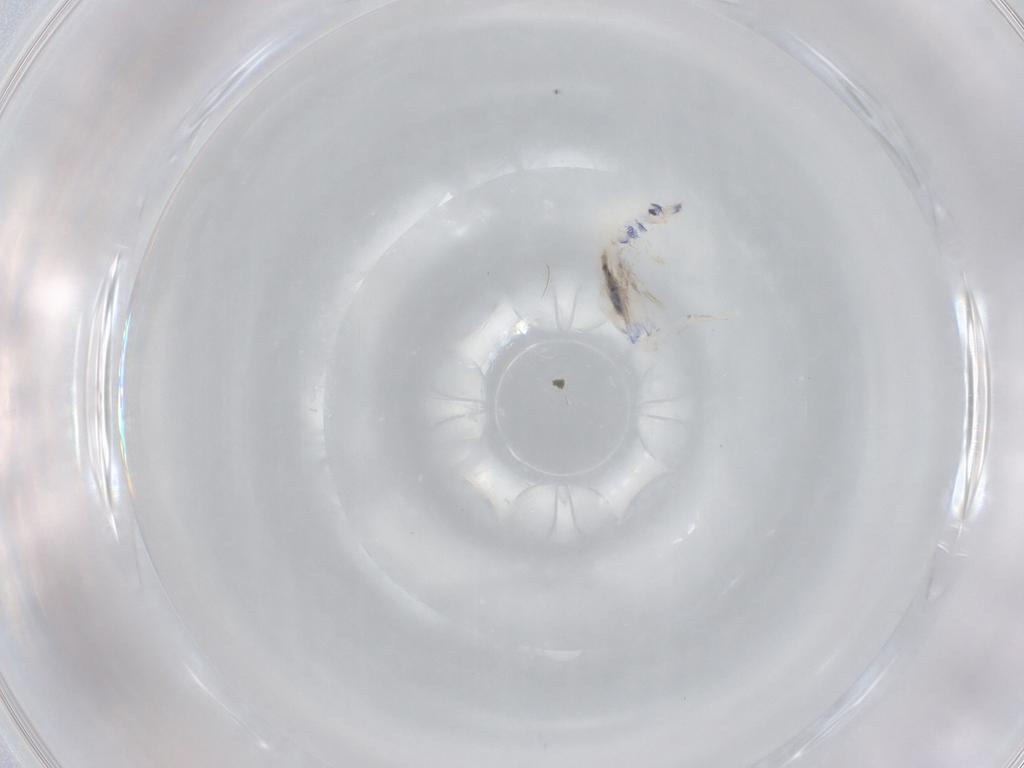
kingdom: Animalia
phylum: Arthropoda
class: Collembola
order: Entomobryomorpha
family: Entomobryidae
